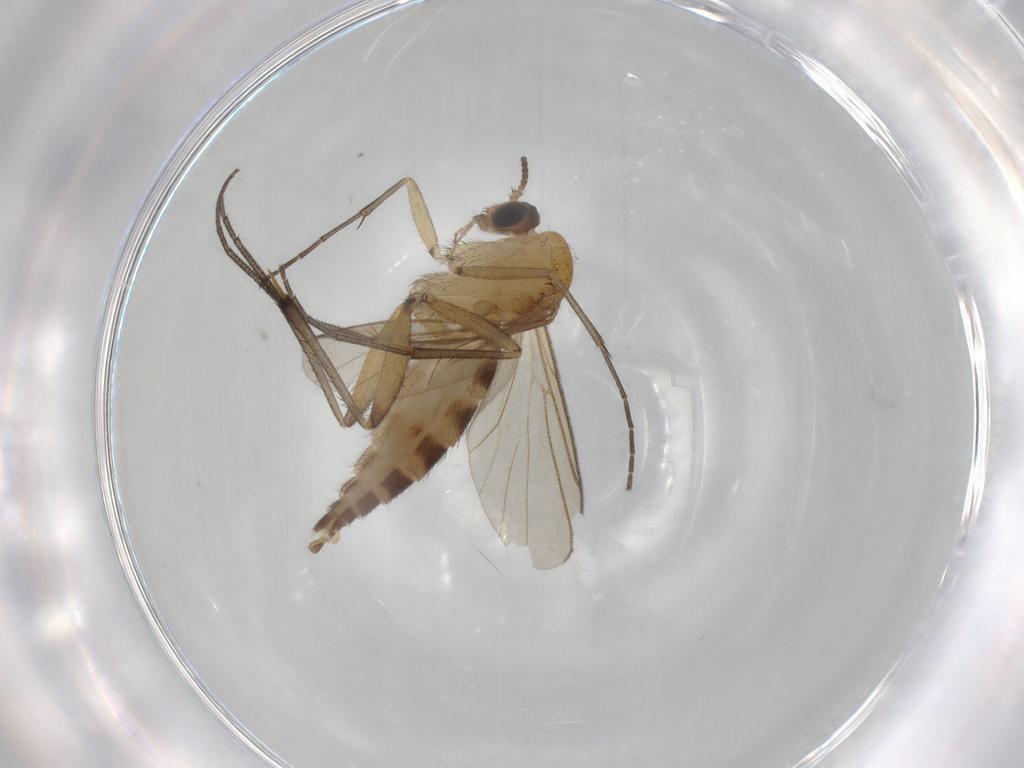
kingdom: Animalia
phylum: Arthropoda
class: Insecta
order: Diptera
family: Mycetophilidae
